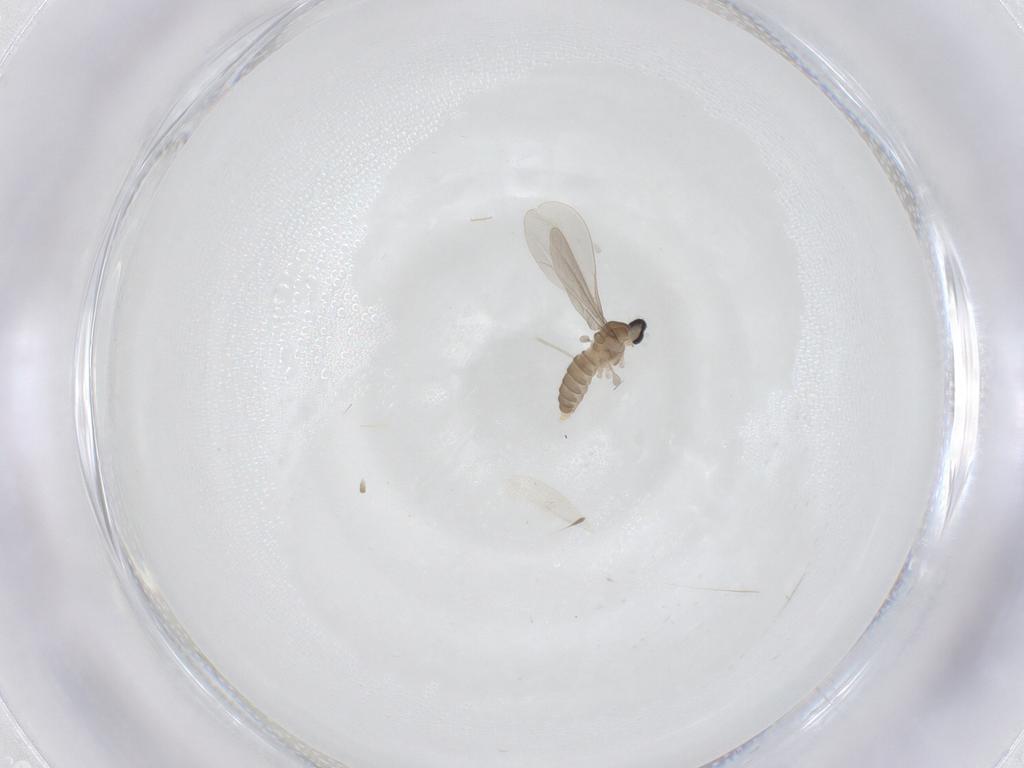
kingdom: Animalia
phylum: Arthropoda
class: Insecta
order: Diptera
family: Cecidomyiidae
